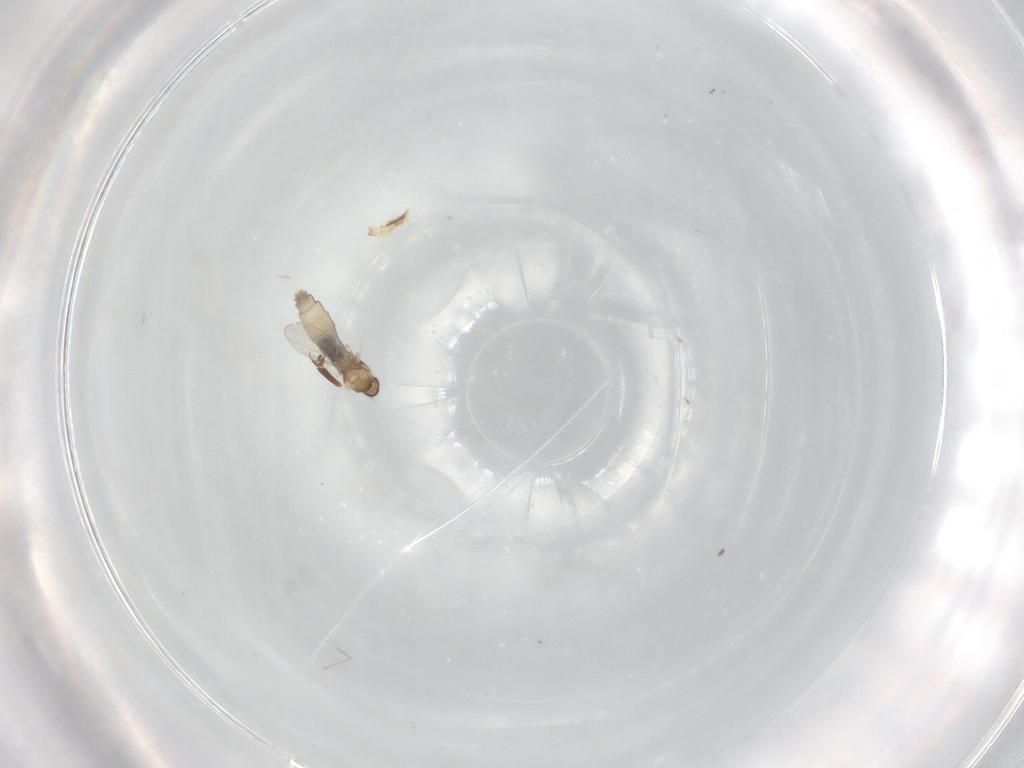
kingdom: Animalia
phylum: Arthropoda
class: Insecta
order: Diptera
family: Cecidomyiidae
